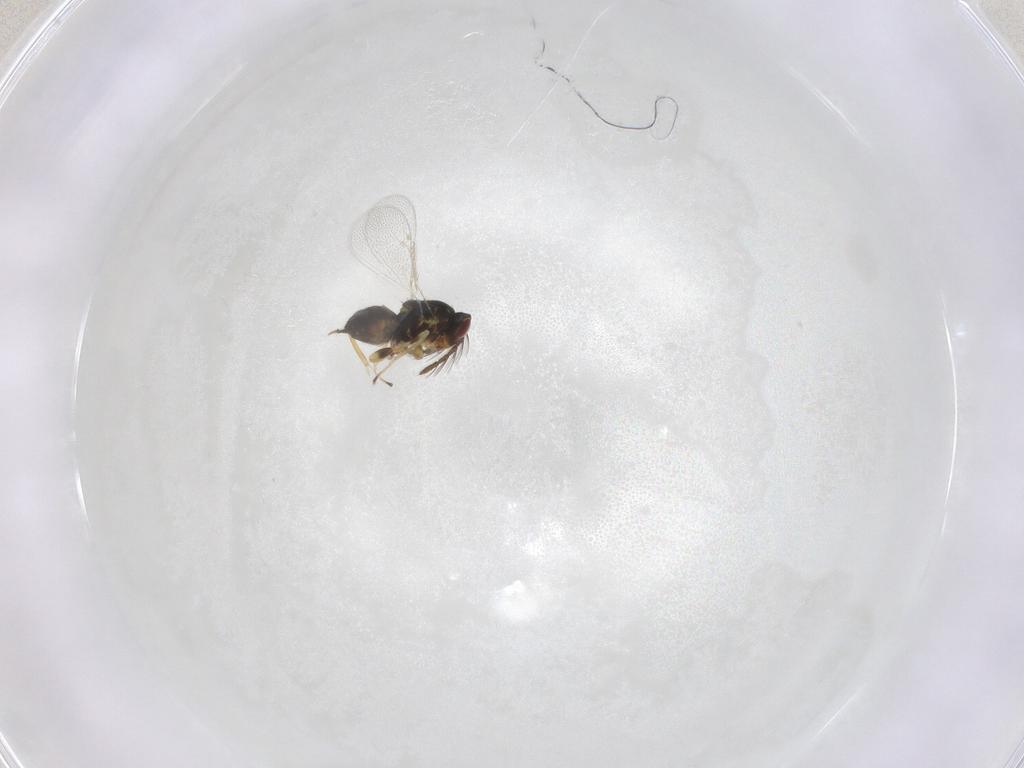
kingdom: Animalia
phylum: Arthropoda
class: Insecta
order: Hymenoptera
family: Eulophidae
